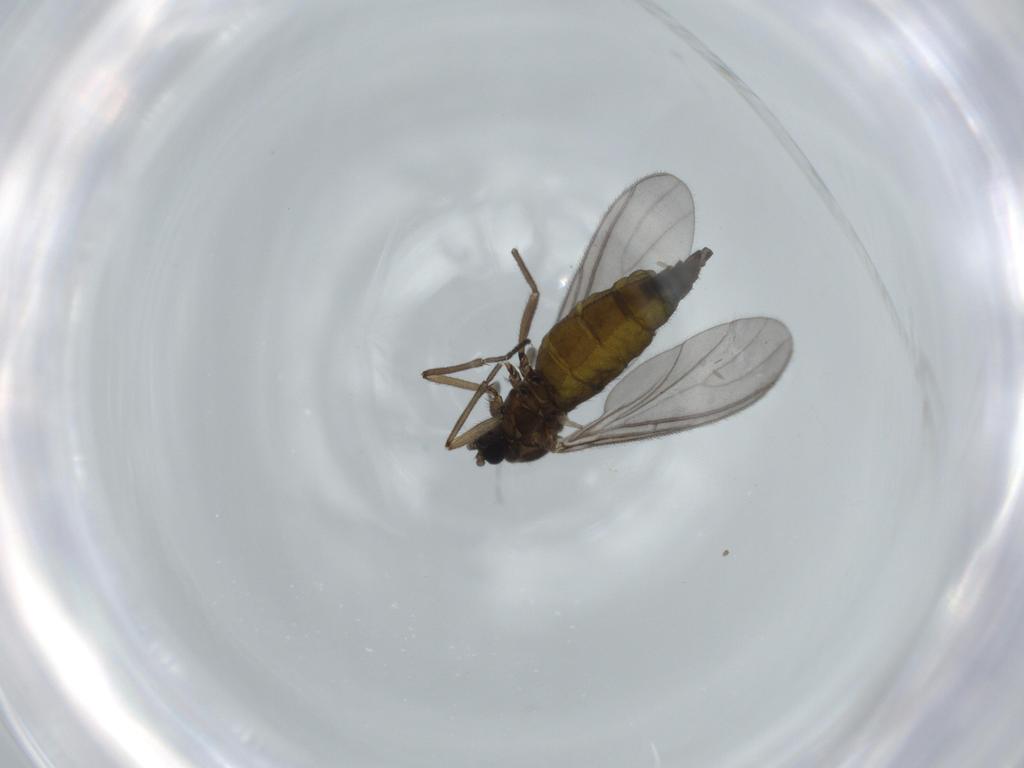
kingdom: Animalia
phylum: Arthropoda
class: Insecta
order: Diptera
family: Sciaridae
